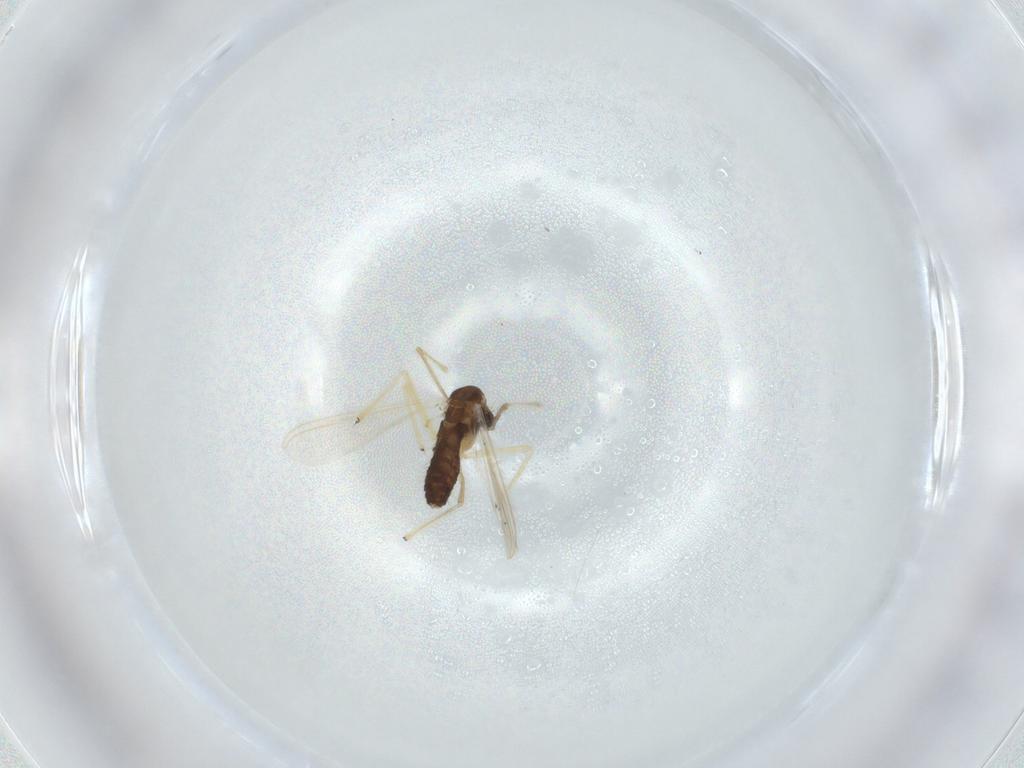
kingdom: Animalia
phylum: Arthropoda
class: Insecta
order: Diptera
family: Chironomidae
